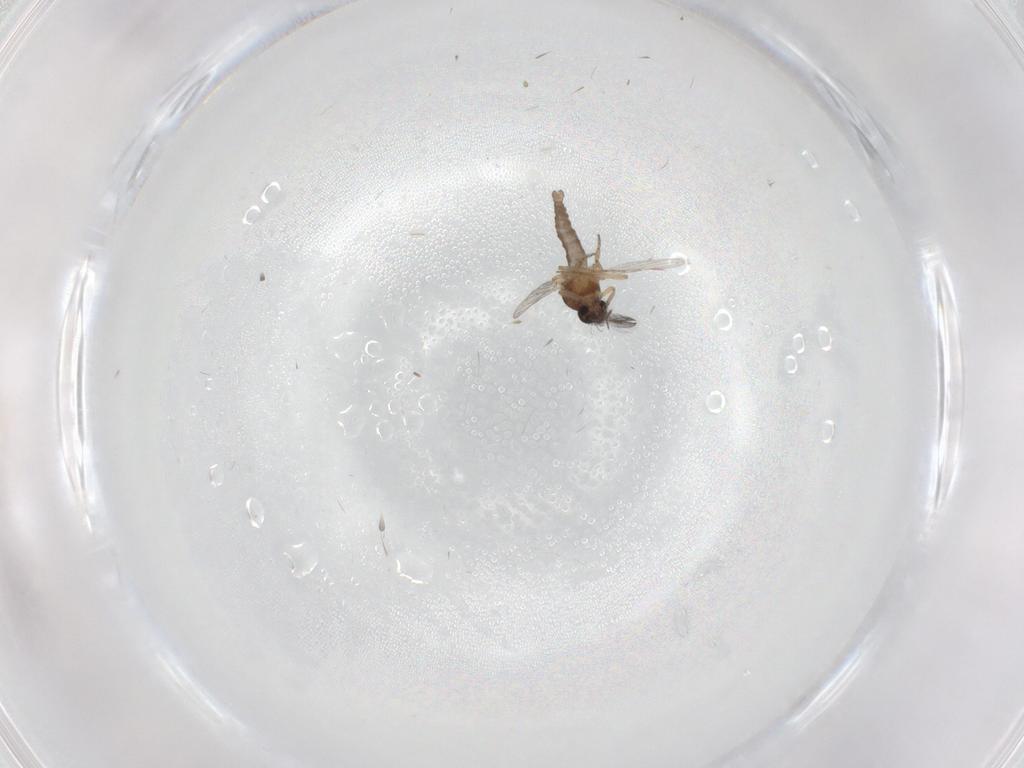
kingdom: Animalia
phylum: Arthropoda
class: Insecta
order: Diptera
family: Ceratopogonidae
